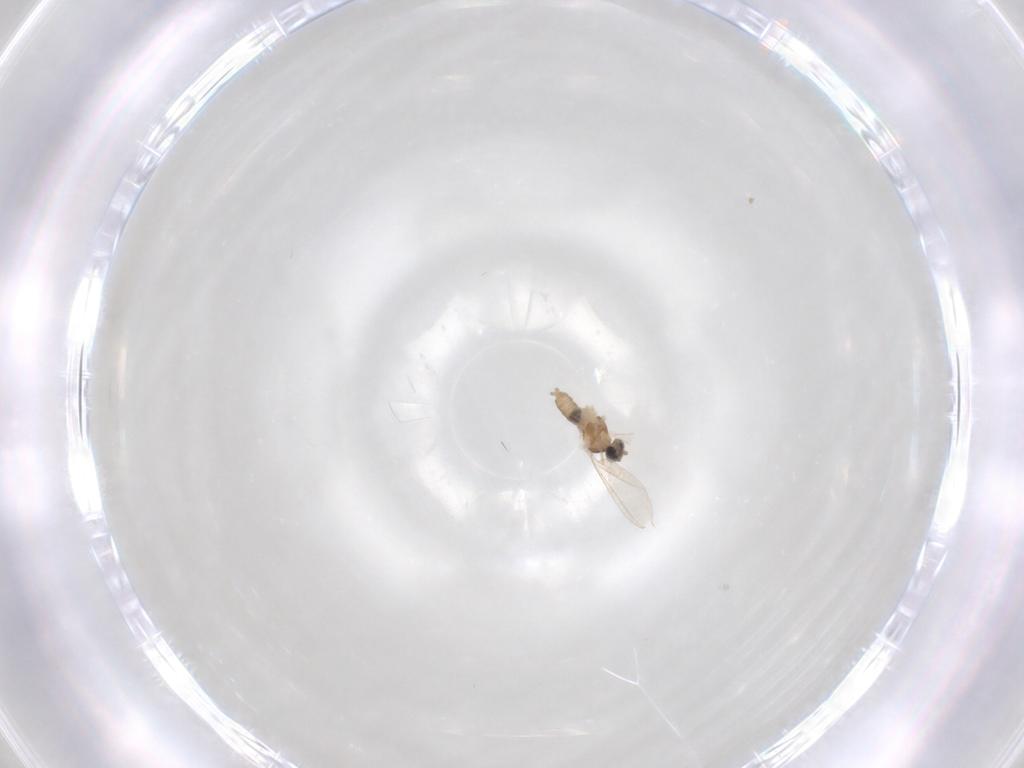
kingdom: Animalia
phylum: Arthropoda
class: Insecta
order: Diptera
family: Cecidomyiidae
